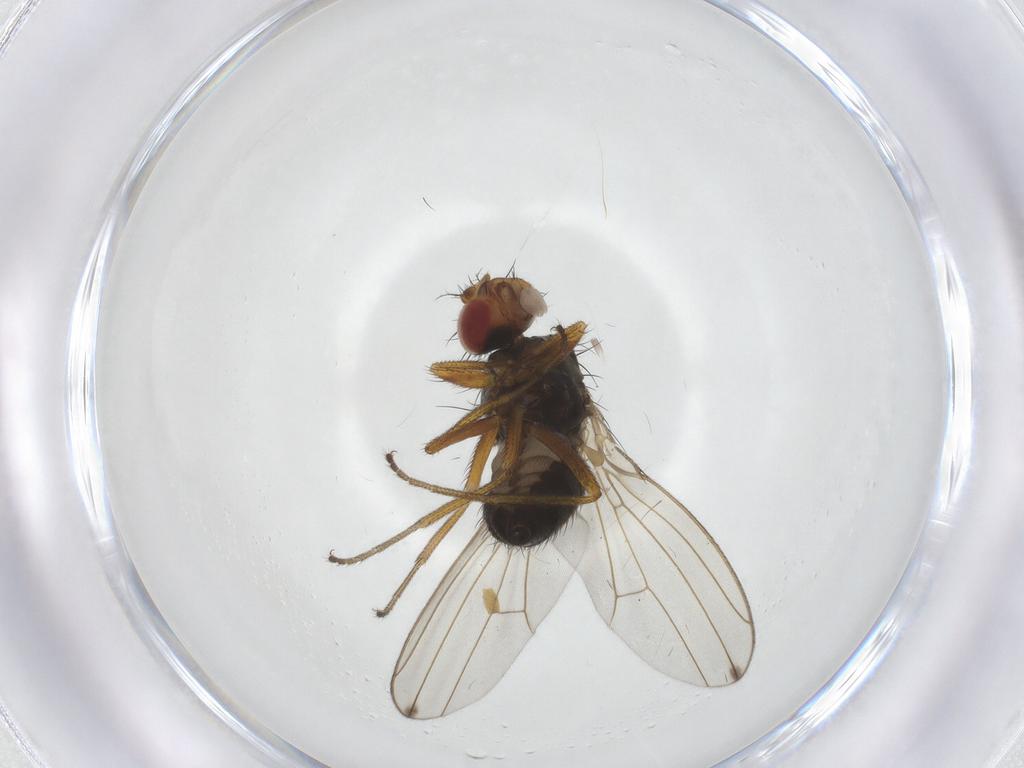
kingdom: Animalia
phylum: Arthropoda
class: Insecta
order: Diptera
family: Drosophilidae
